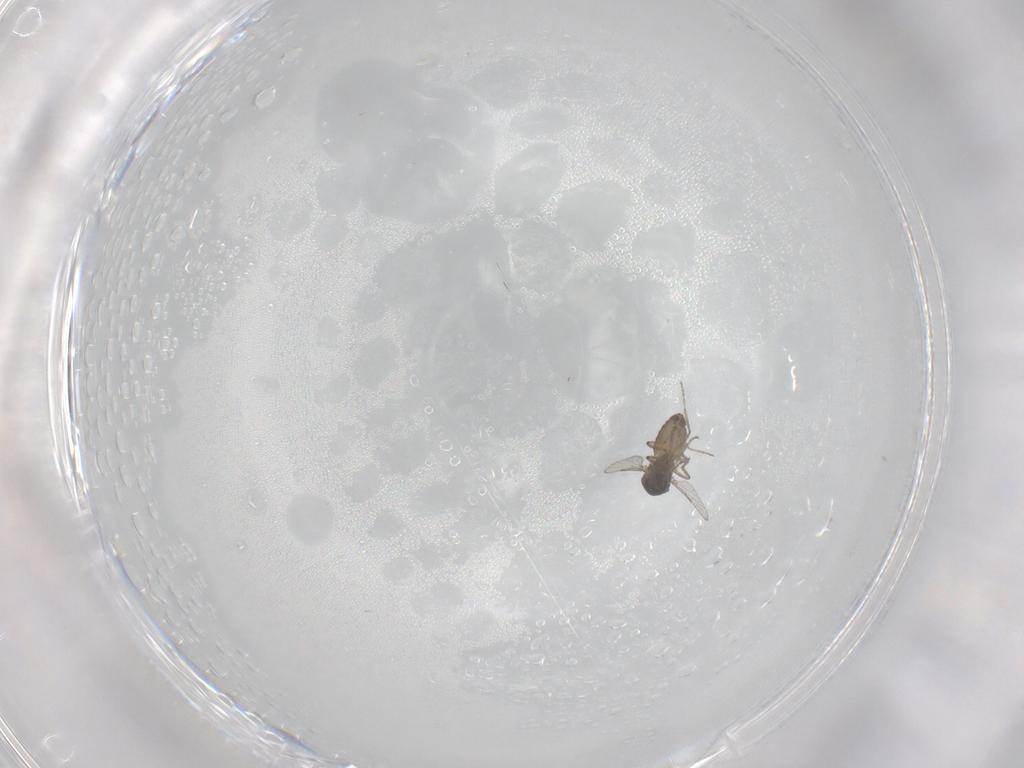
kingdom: Animalia
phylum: Arthropoda
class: Insecta
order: Diptera
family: Ceratopogonidae
